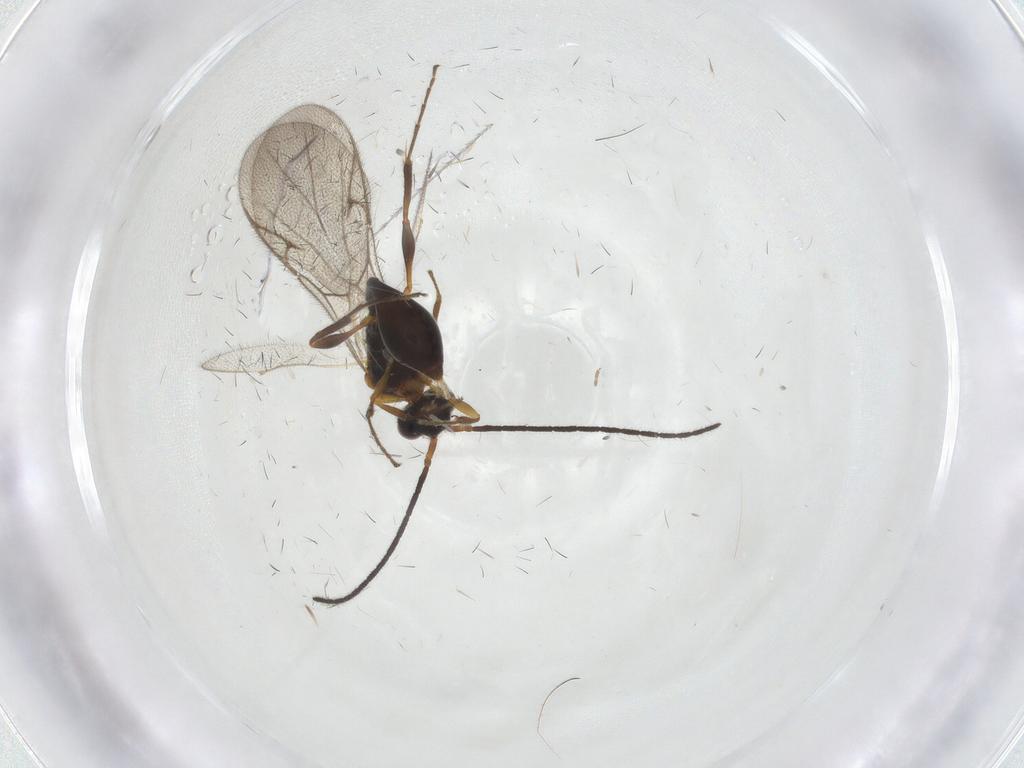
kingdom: Animalia
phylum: Arthropoda
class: Insecta
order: Hymenoptera
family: Diapriidae
